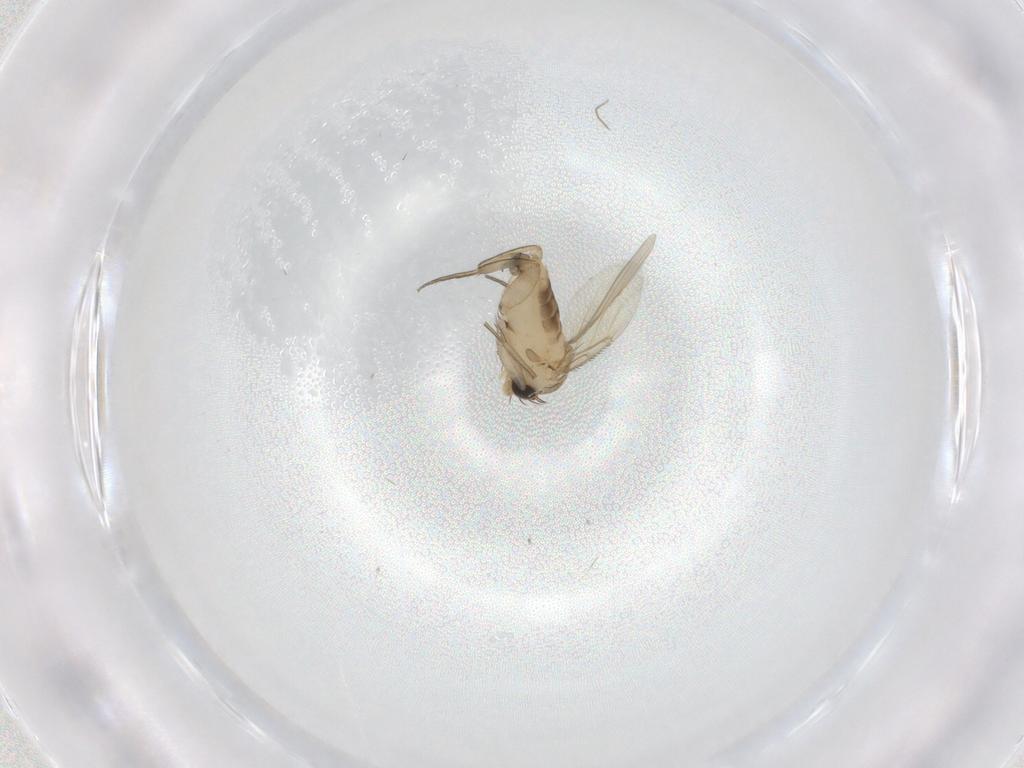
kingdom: Animalia
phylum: Arthropoda
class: Insecta
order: Diptera
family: Phoridae
